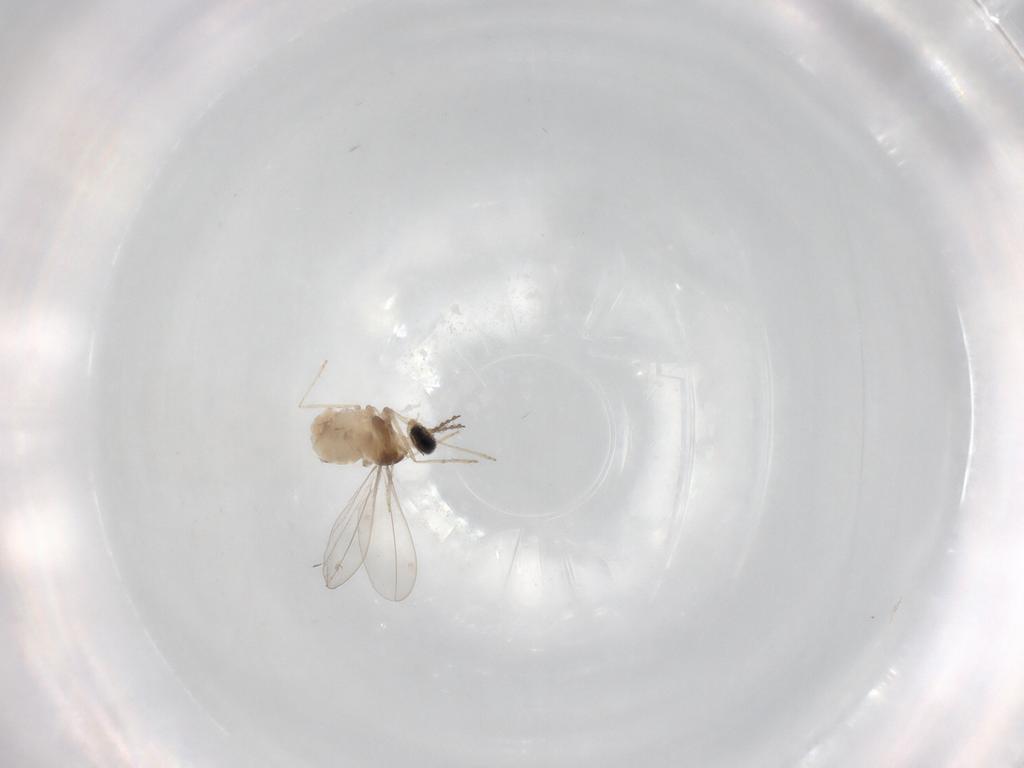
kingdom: Animalia
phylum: Arthropoda
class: Insecta
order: Diptera
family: Cecidomyiidae
